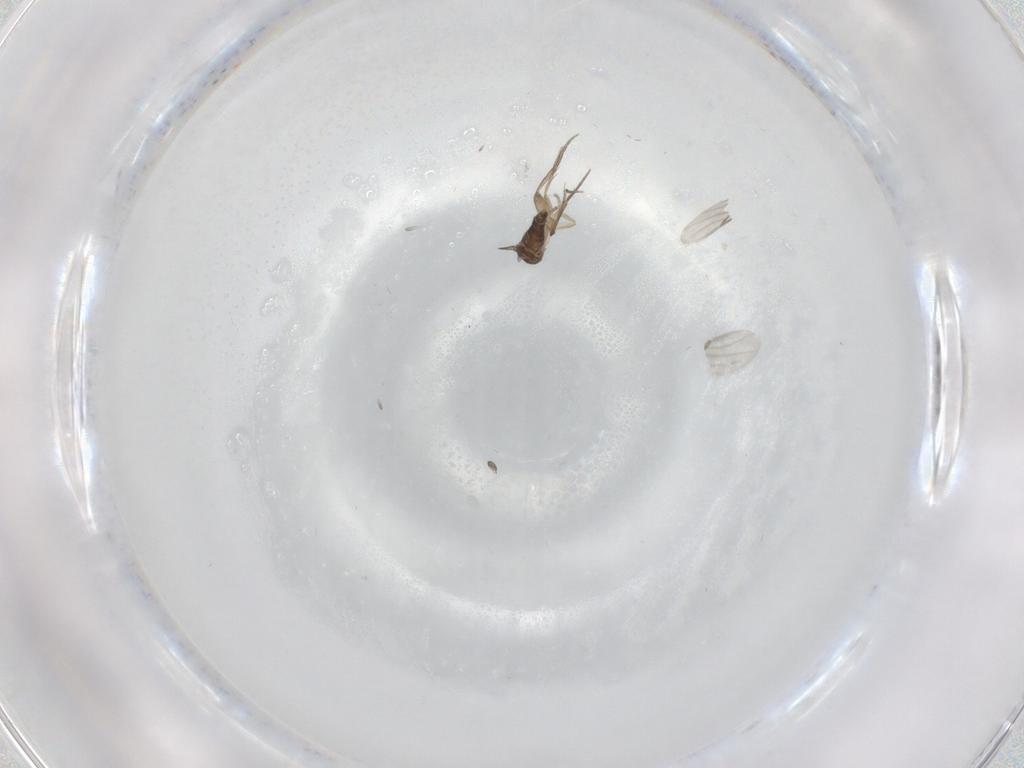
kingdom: Animalia
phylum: Arthropoda
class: Insecta
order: Diptera
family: Phoridae
